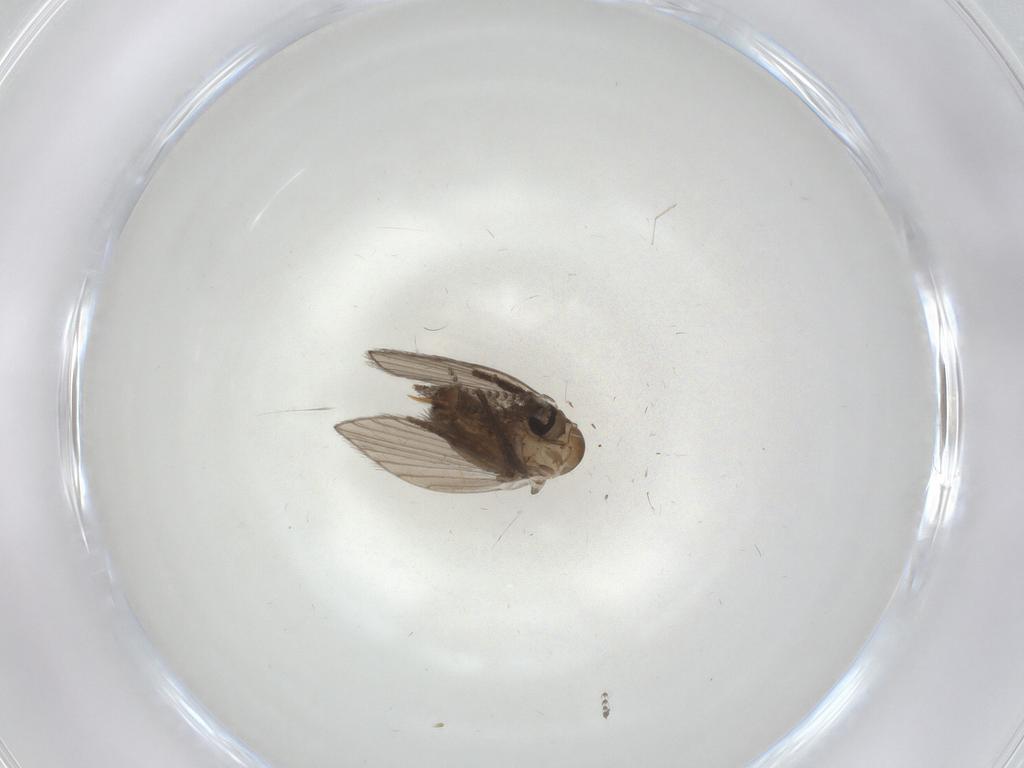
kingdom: Animalia
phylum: Arthropoda
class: Insecta
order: Diptera
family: Psychodidae
